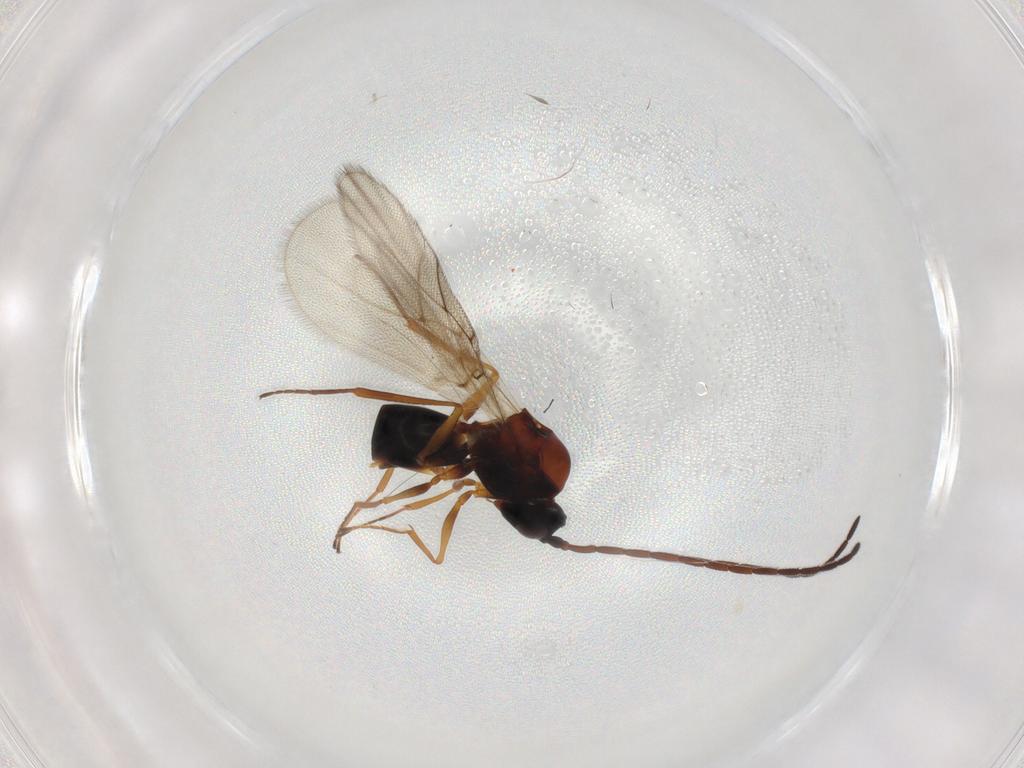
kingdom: Animalia
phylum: Arthropoda
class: Insecta
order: Hymenoptera
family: Figitidae
